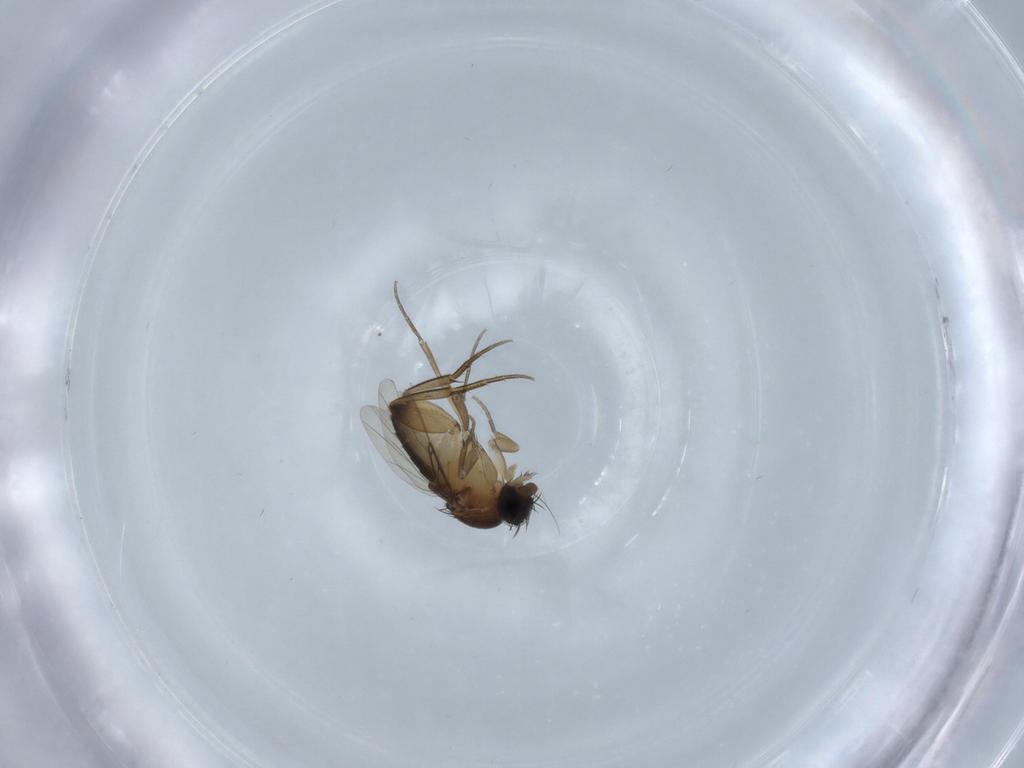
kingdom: Animalia
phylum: Arthropoda
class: Insecta
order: Diptera
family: Phoridae
